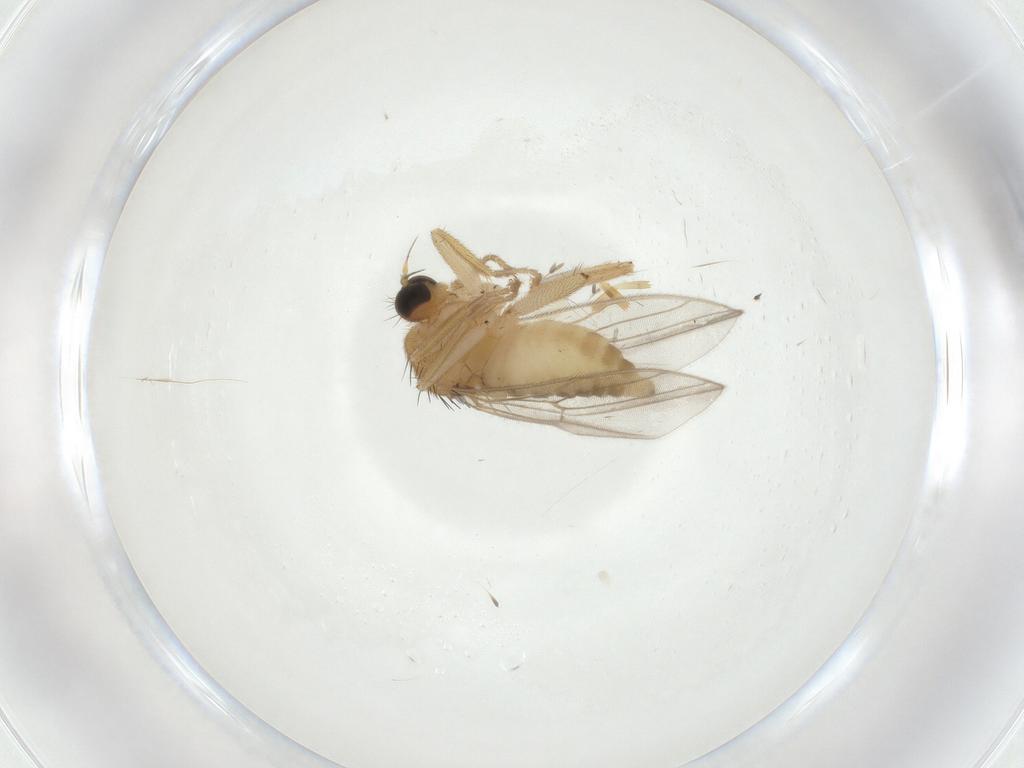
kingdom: Animalia
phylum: Arthropoda
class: Insecta
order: Diptera
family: Hybotidae
